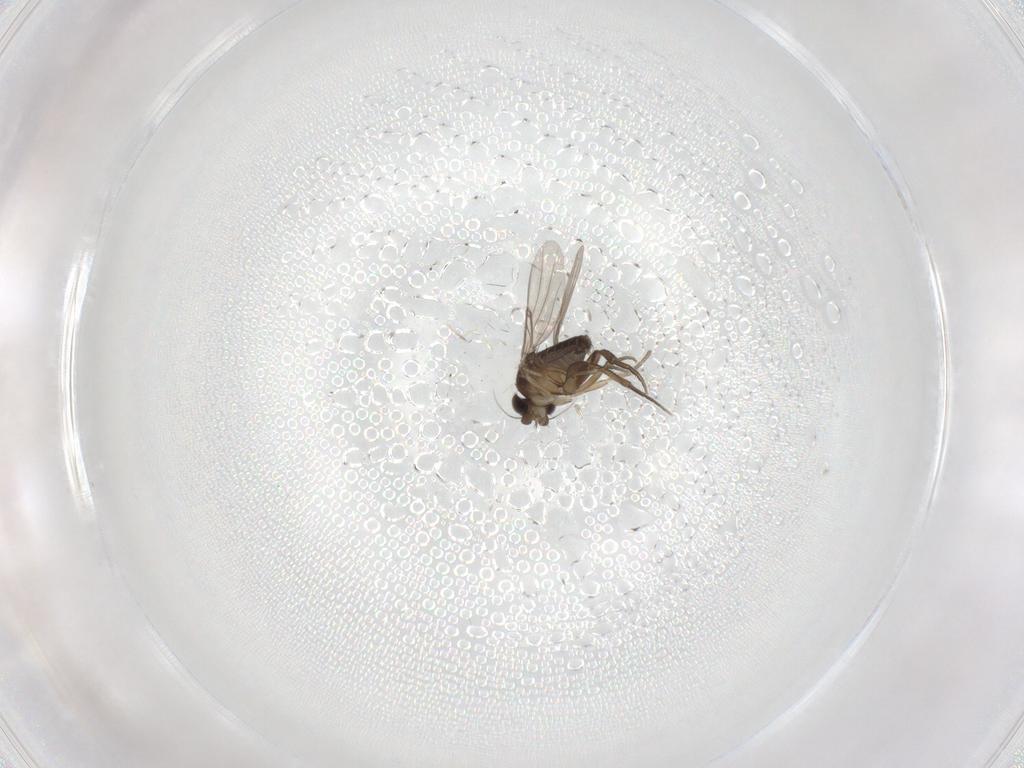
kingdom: Animalia
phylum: Arthropoda
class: Insecta
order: Diptera
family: Phoridae
